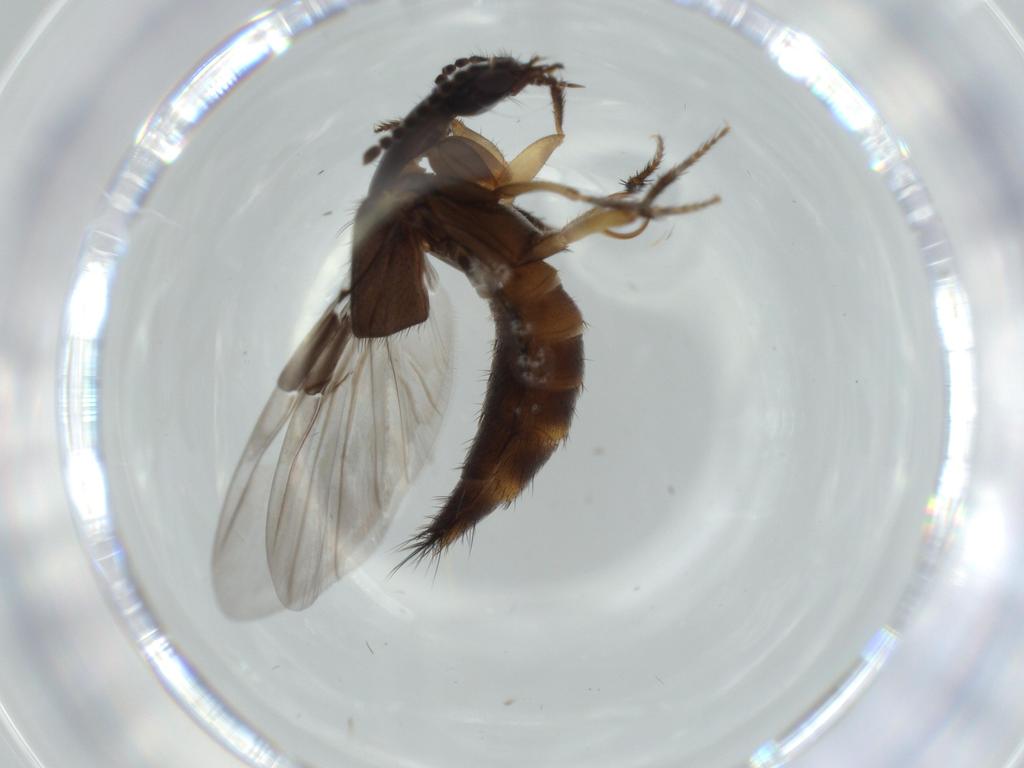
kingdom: Animalia
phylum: Arthropoda
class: Insecta
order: Coleoptera
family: Staphylinidae
